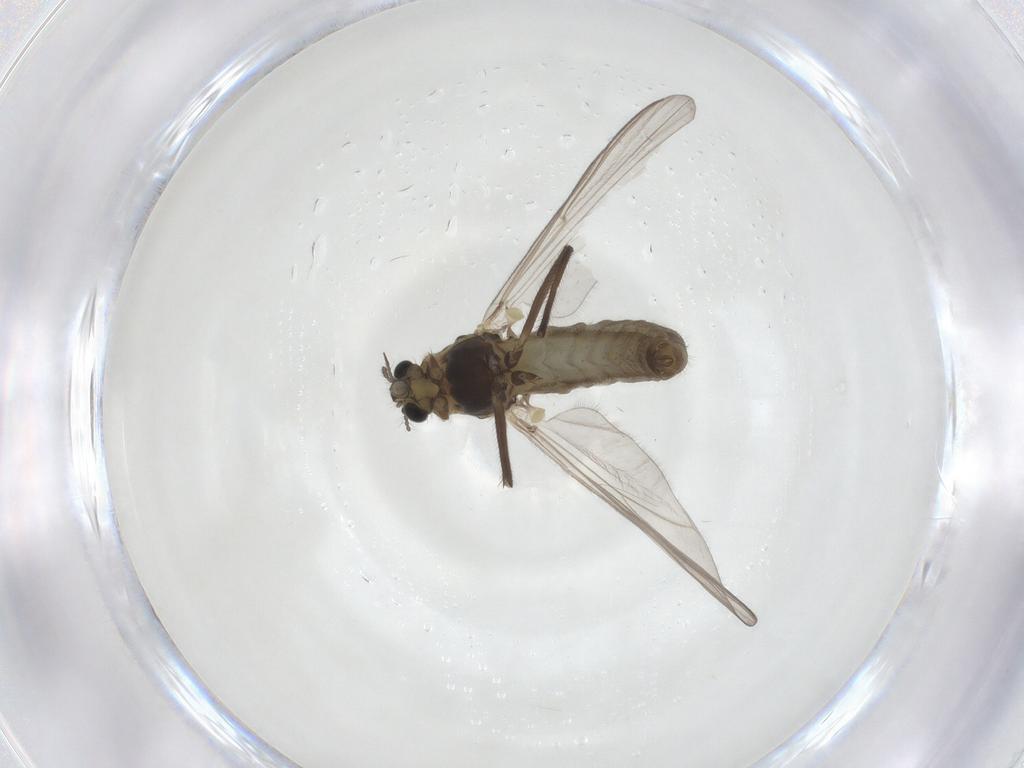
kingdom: Animalia
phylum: Arthropoda
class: Insecta
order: Diptera
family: Chironomidae
